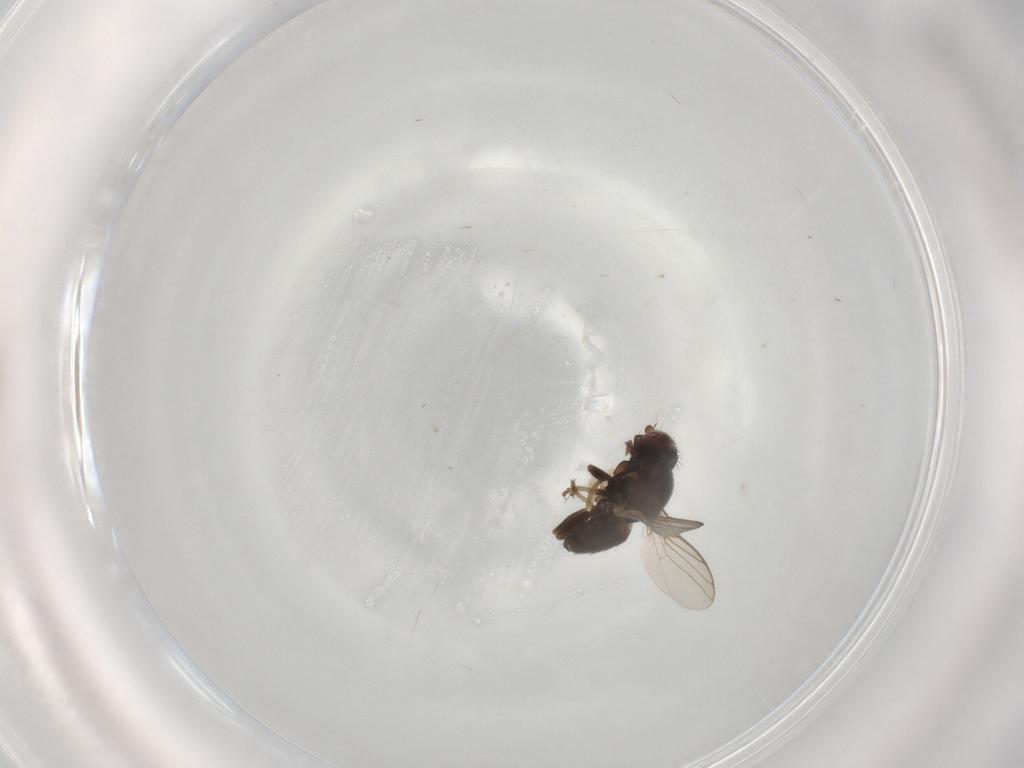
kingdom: Animalia
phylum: Arthropoda
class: Insecta
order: Diptera
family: Chloropidae
